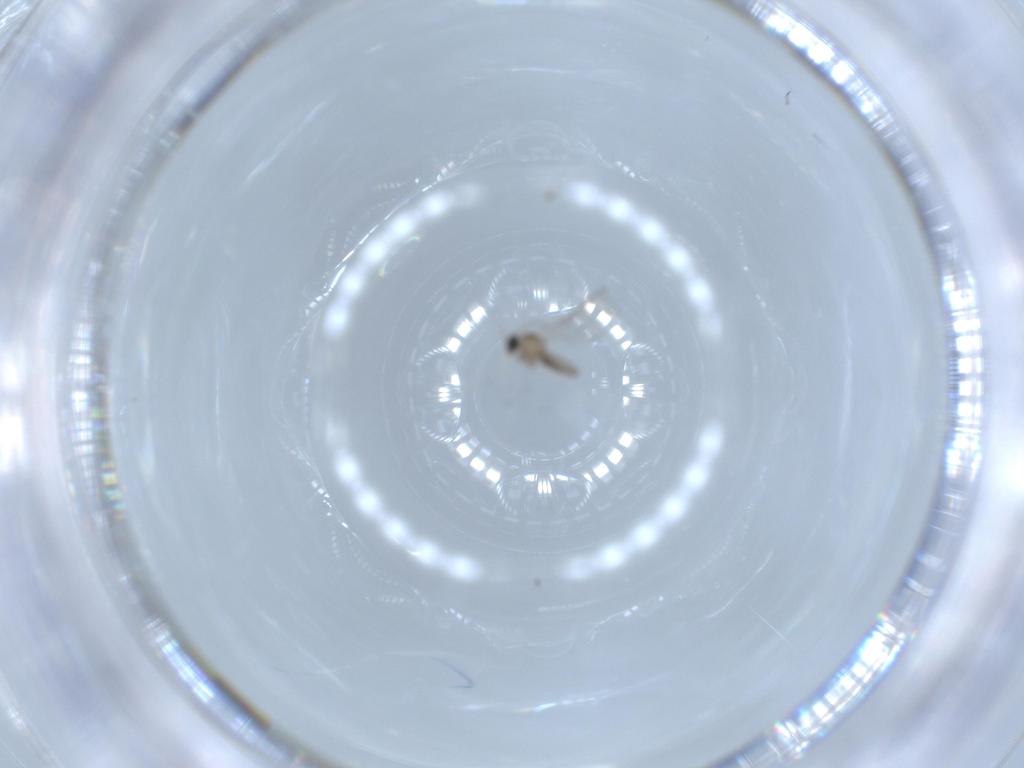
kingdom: Animalia
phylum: Arthropoda
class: Insecta
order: Diptera
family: Cecidomyiidae
